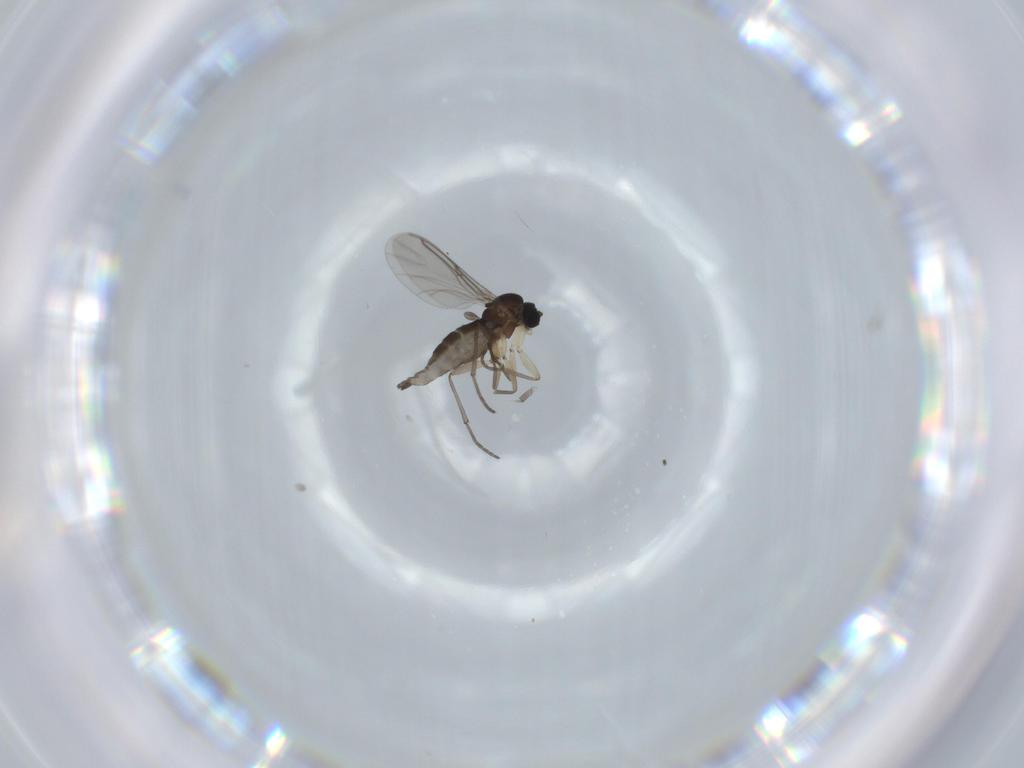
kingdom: Animalia
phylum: Arthropoda
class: Insecta
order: Diptera
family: Sciaridae
